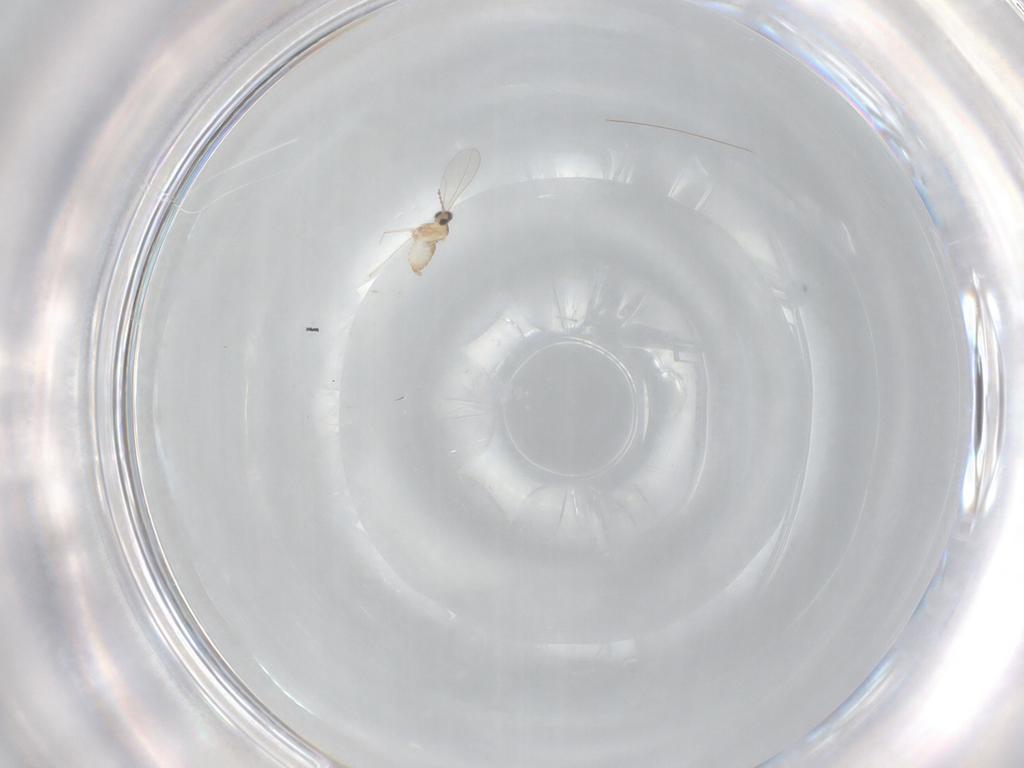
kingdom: Animalia
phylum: Arthropoda
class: Insecta
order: Diptera
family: Cecidomyiidae
